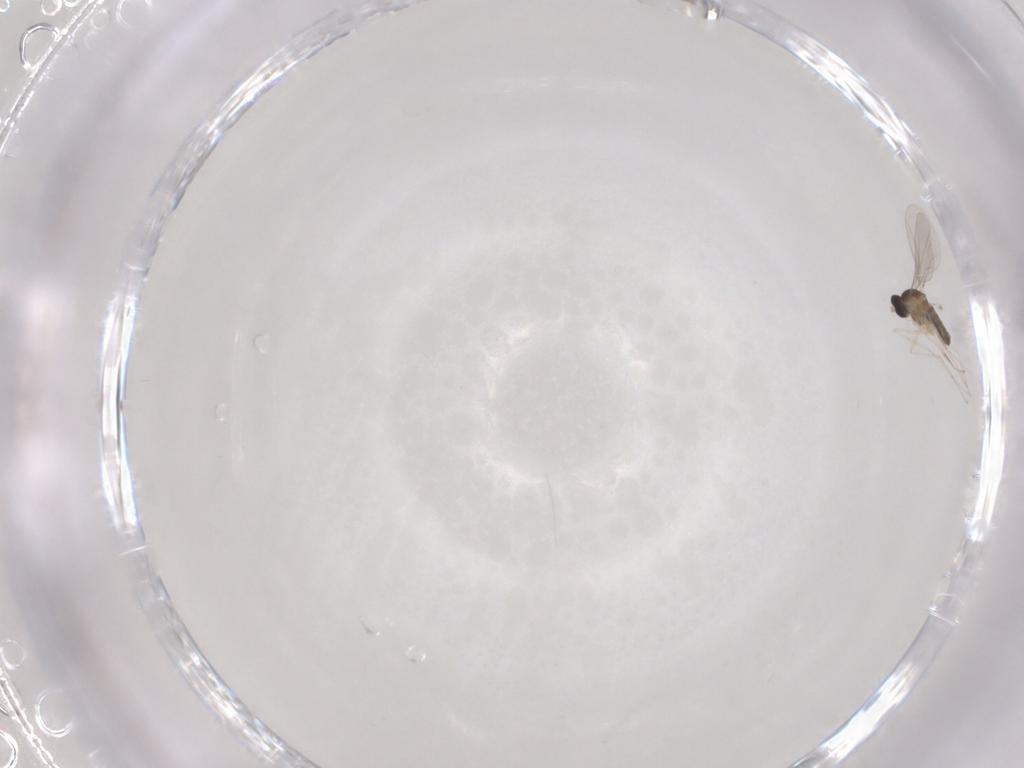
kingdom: Animalia
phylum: Arthropoda
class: Insecta
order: Diptera
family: Cecidomyiidae
